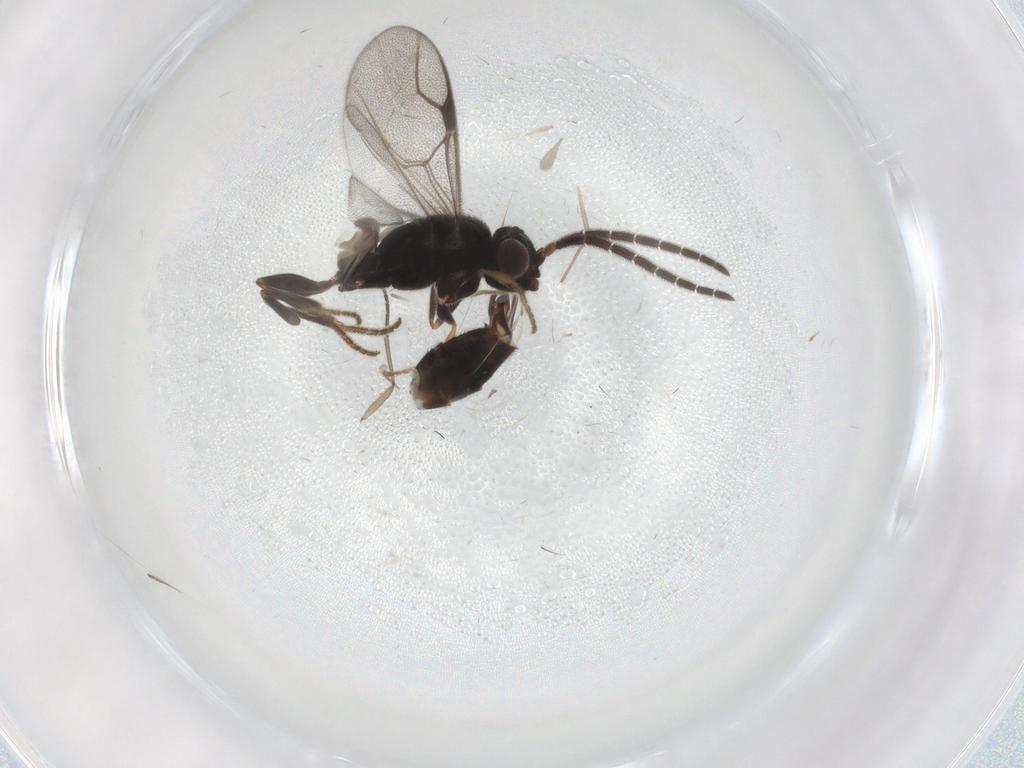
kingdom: Animalia
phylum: Arthropoda
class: Insecta
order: Hymenoptera
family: Dryinidae
